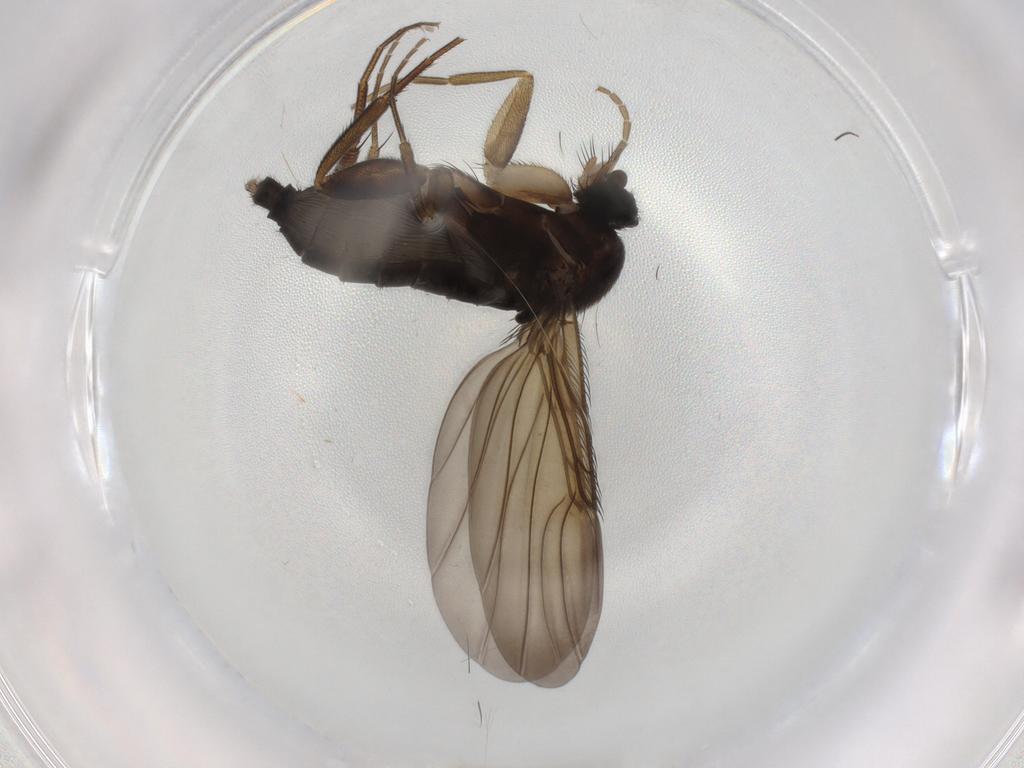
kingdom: Animalia
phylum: Arthropoda
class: Insecta
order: Diptera
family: Phoridae
